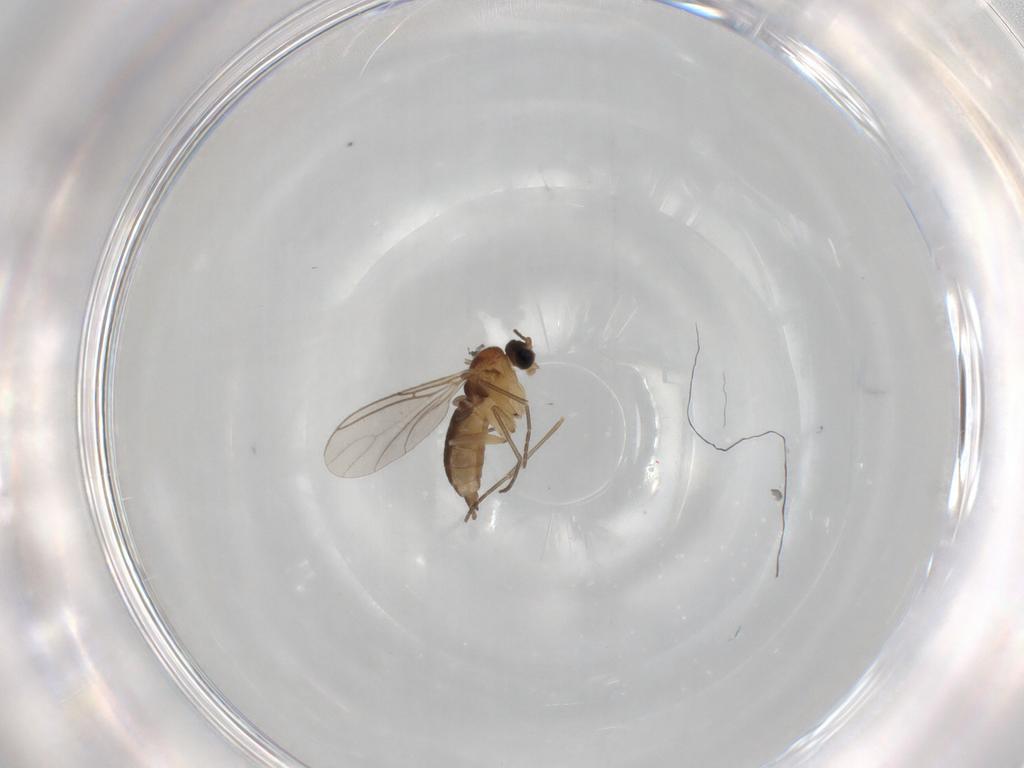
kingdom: Animalia
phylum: Arthropoda
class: Insecta
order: Diptera
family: Sciaridae
